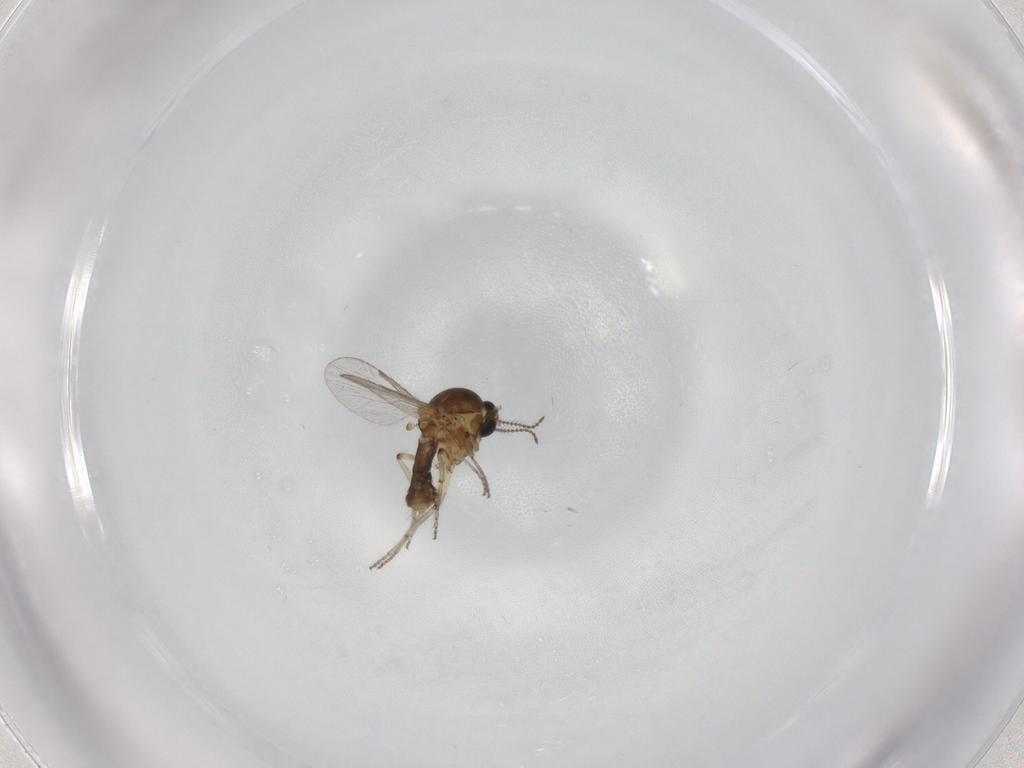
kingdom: Animalia
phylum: Arthropoda
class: Insecta
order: Diptera
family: Ceratopogonidae
